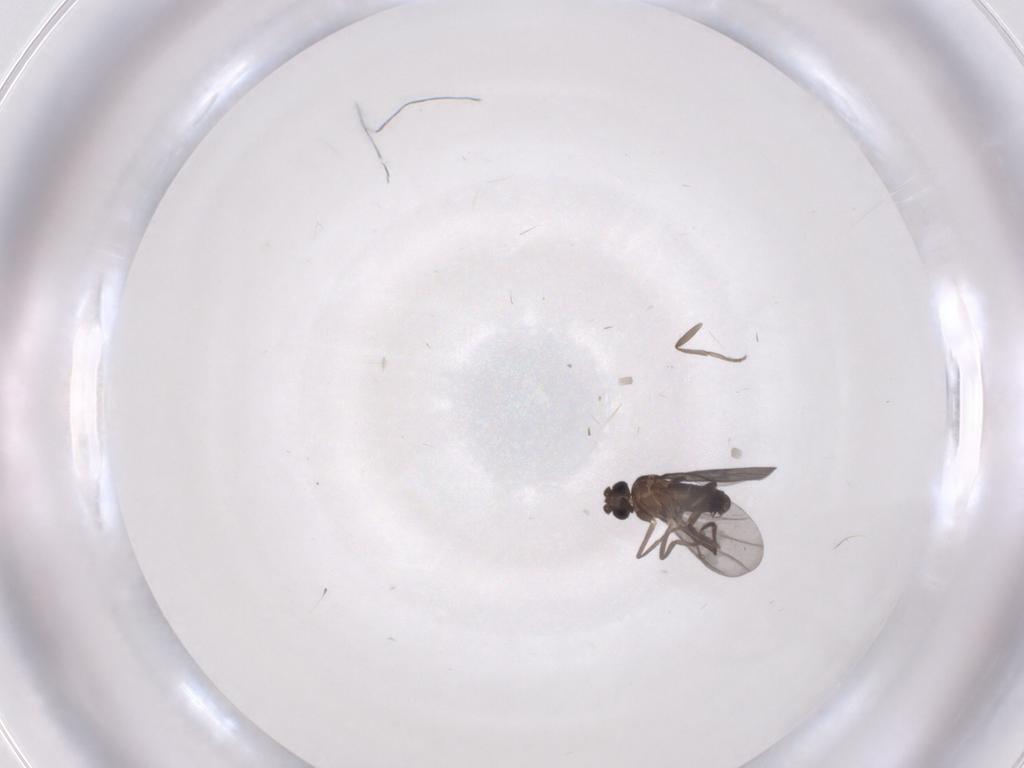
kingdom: Animalia
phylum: Arthropoda
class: Insecta
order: Diptera
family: Phoridae
